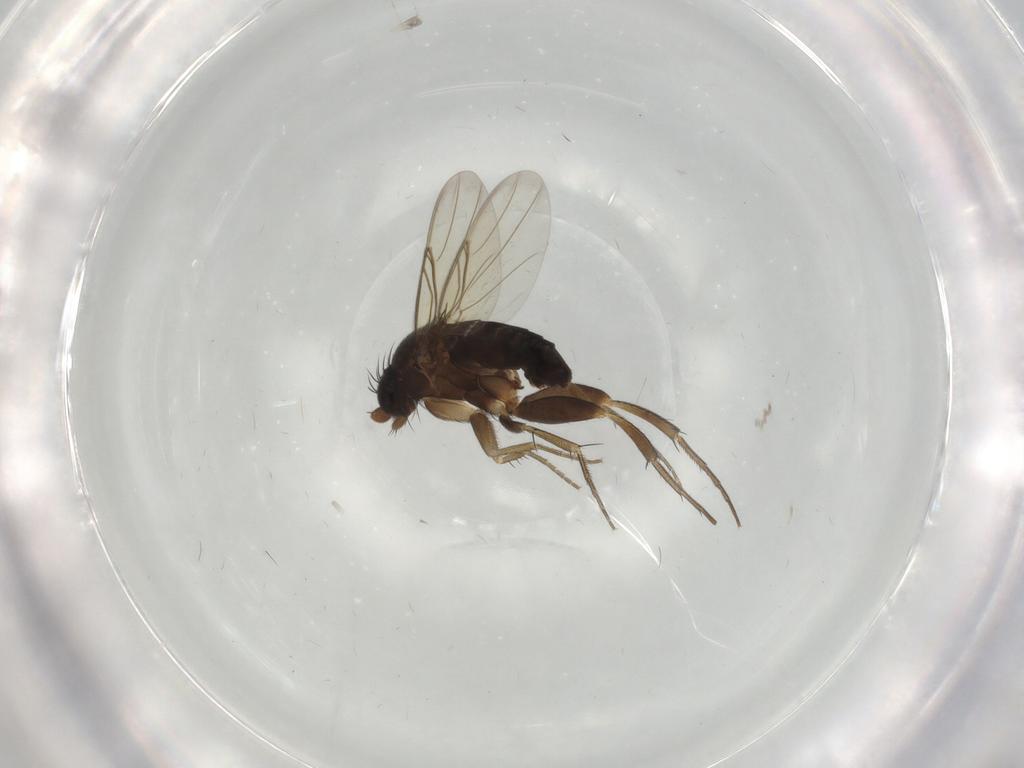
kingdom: Animalia
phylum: Arthropoda
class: Insecta
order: Diptera
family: Phoridae
